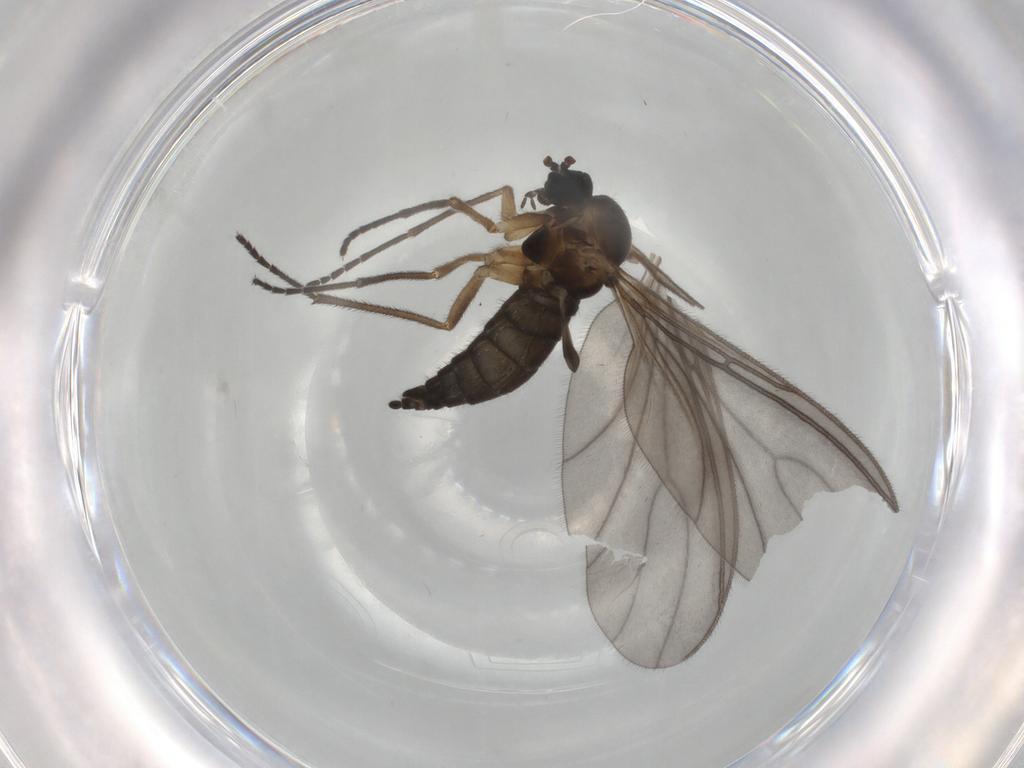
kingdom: Animalia
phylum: Arthropoda
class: Insecta
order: Diptera
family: Sciaridae
